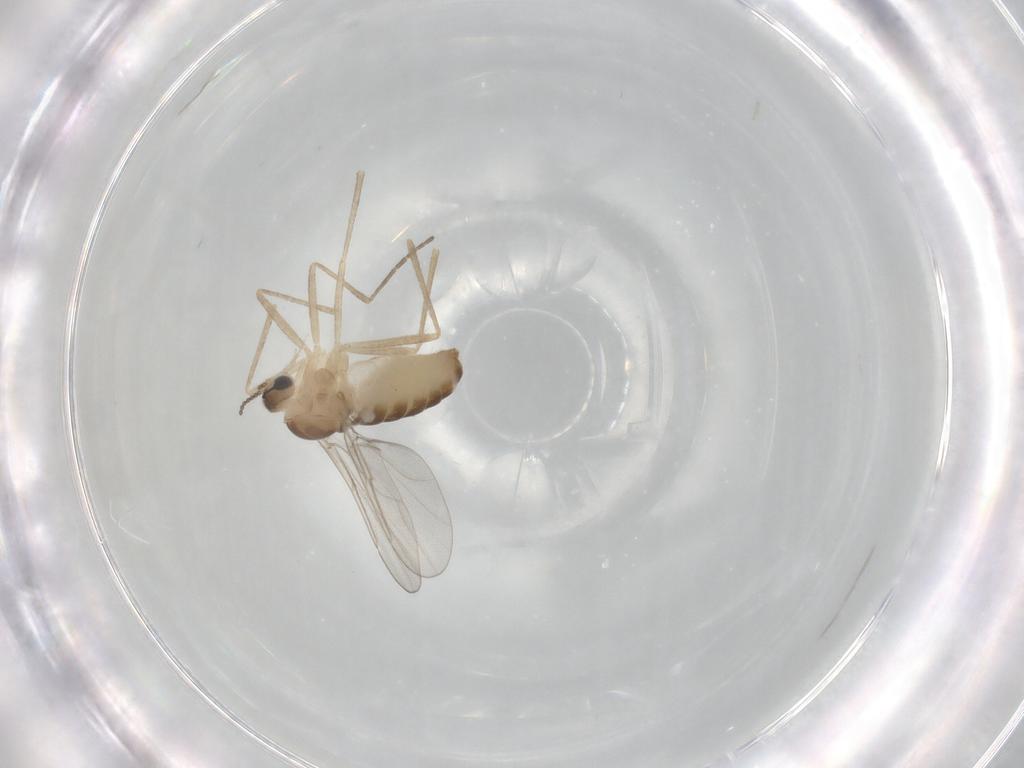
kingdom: Animalia
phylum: Arthropoda
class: Insecta
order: Diptera
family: Cecidomyiidae
